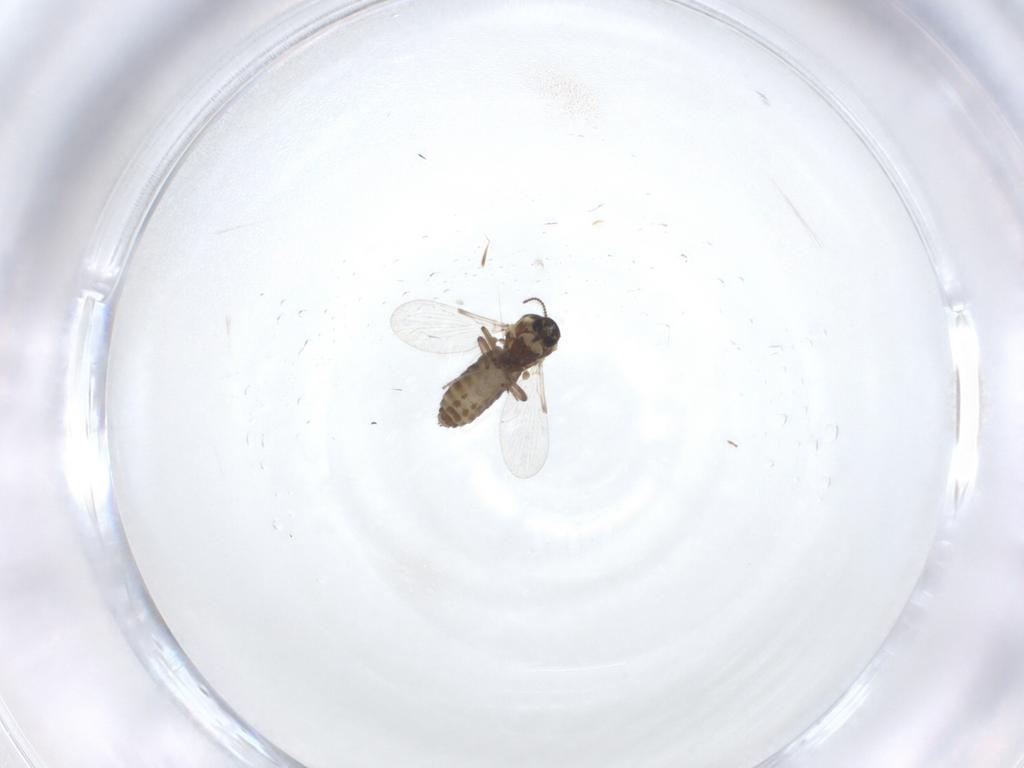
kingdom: Animalia
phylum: Arthropoda
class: Insecta
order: Diptera
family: Ceratopogonidae
